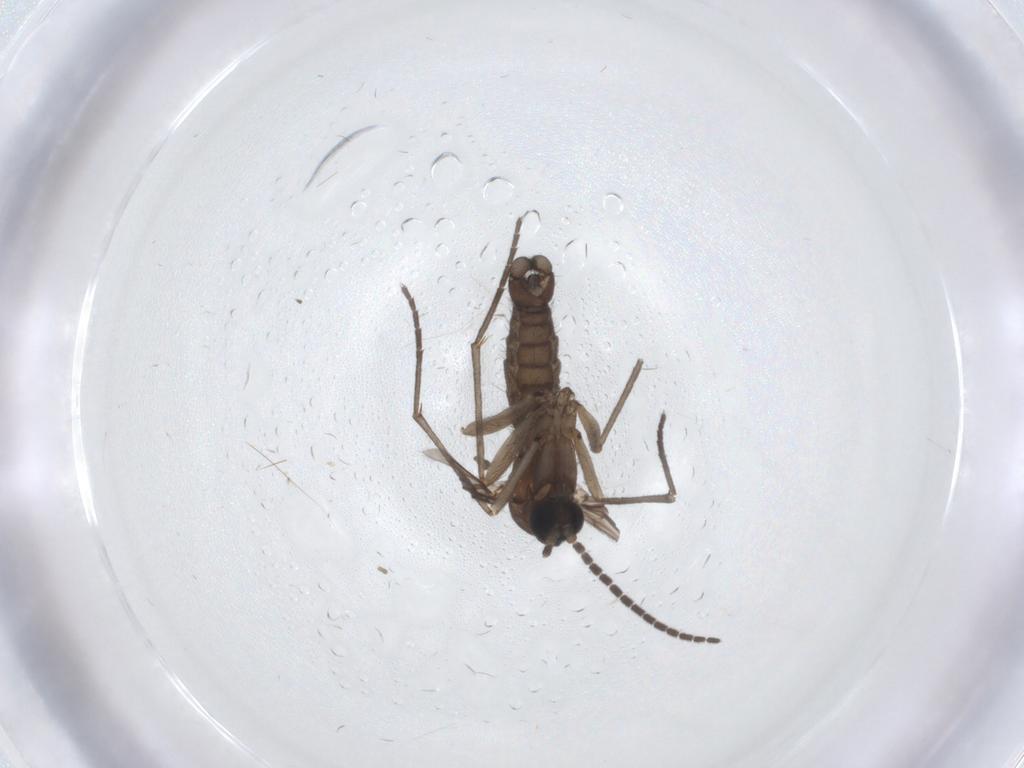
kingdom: Animalia
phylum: Arthropoda
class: Insecta
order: Diptera
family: Sciaridae
